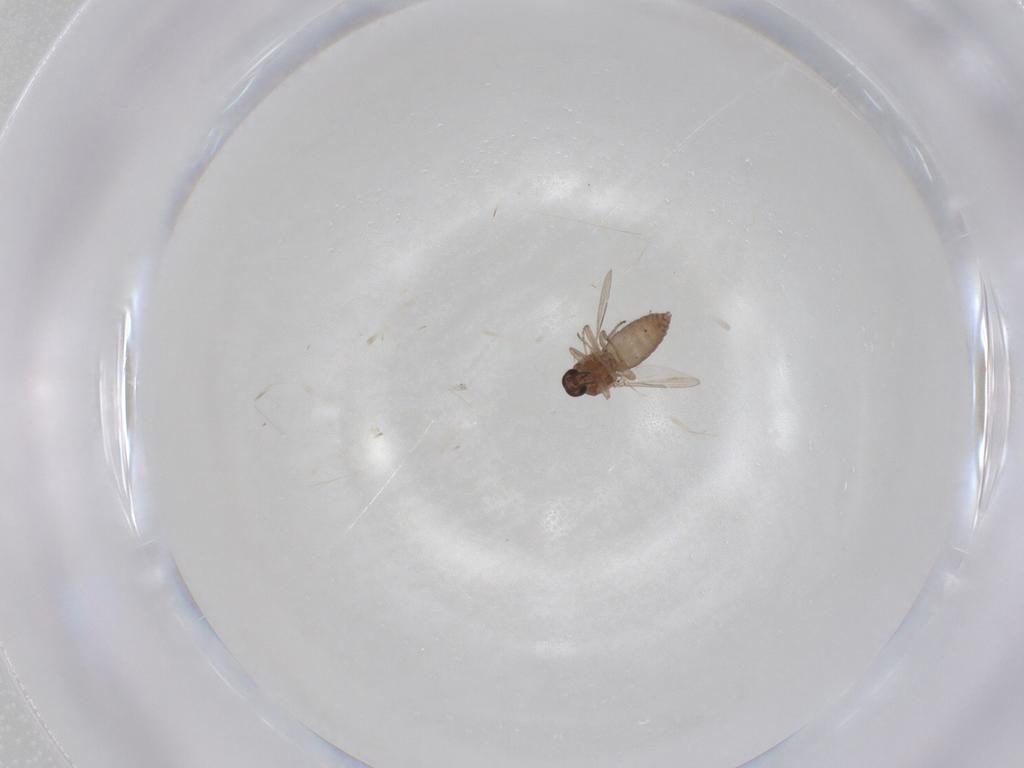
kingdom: Animalia
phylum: Arthropoda
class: Insecta
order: Diptera
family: Ceratopogonidae
